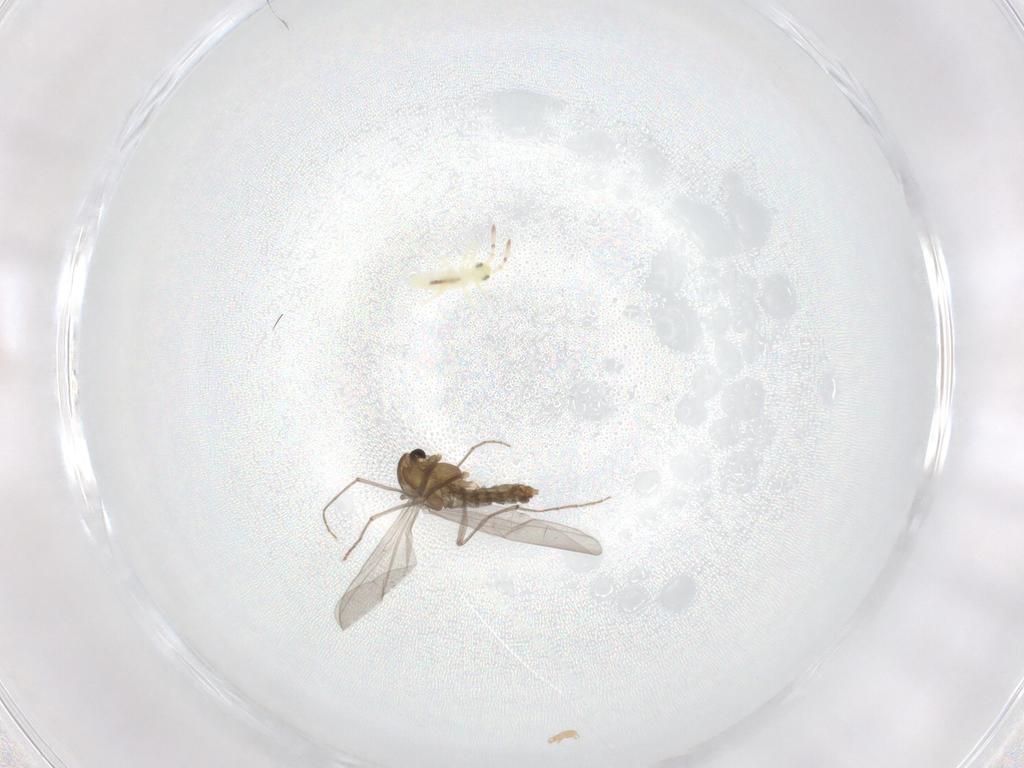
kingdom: Animalia
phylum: Arthropoda
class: Insecta
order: Diptera
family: Chironomidae
